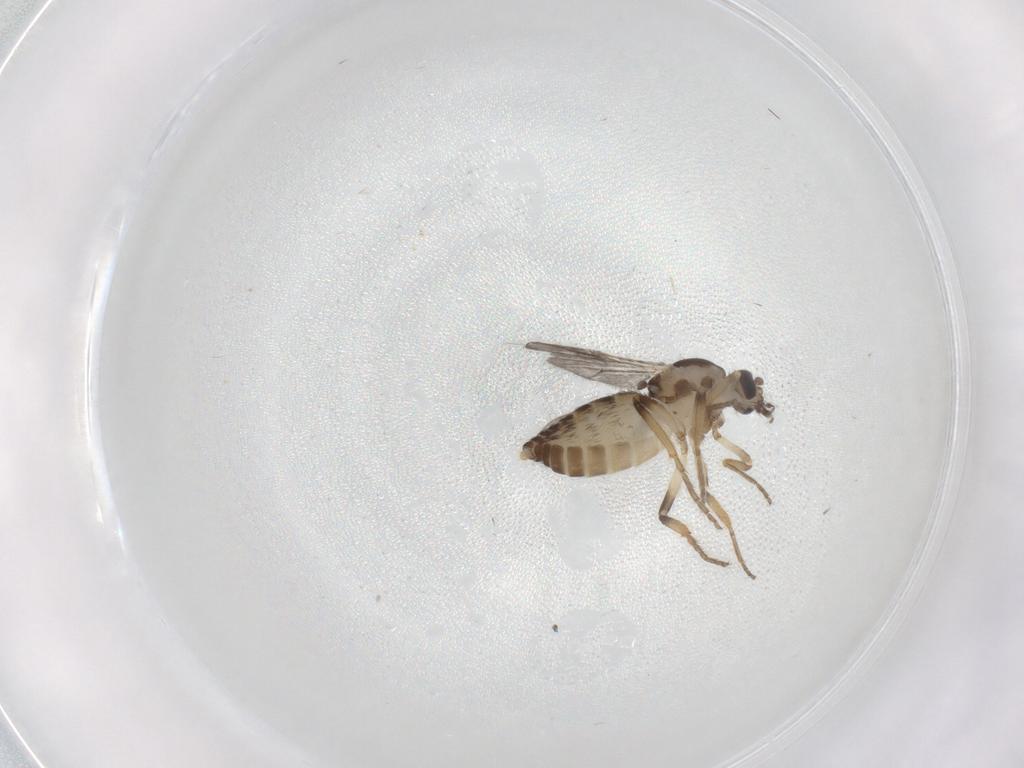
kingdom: Animalia
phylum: Arthropoda
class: Insecta
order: Diptera
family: Ceratopogonidae
